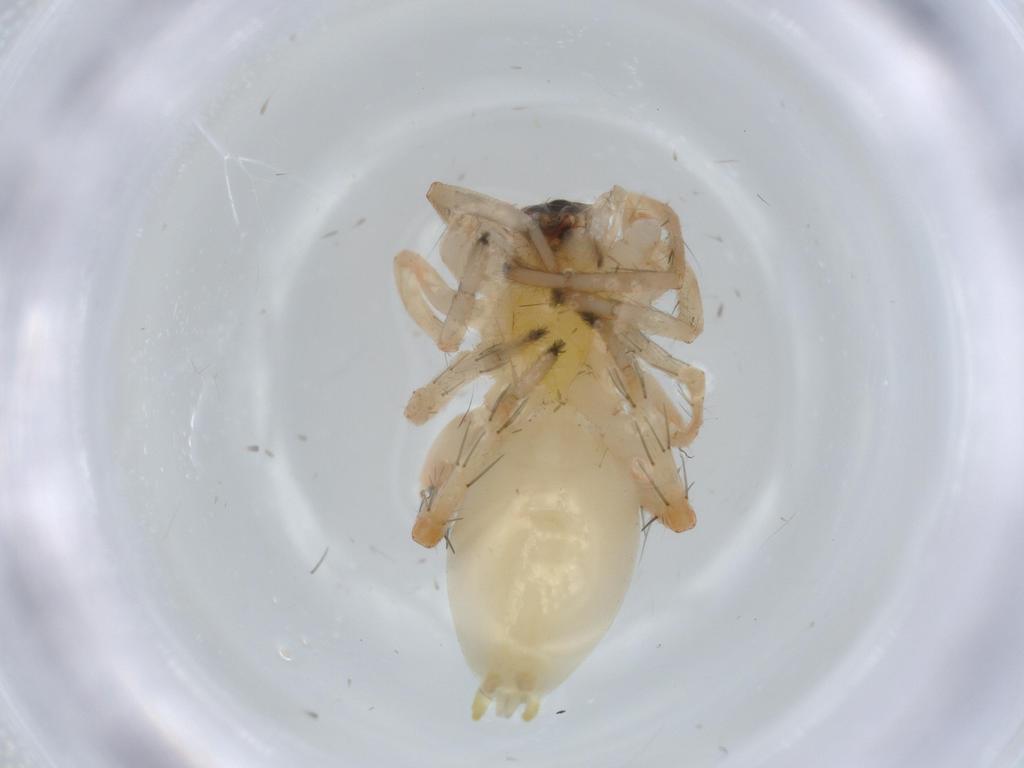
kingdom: Animalia
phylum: Arthropoda
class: Arachnida
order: Araneae
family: Anyphaenidae
